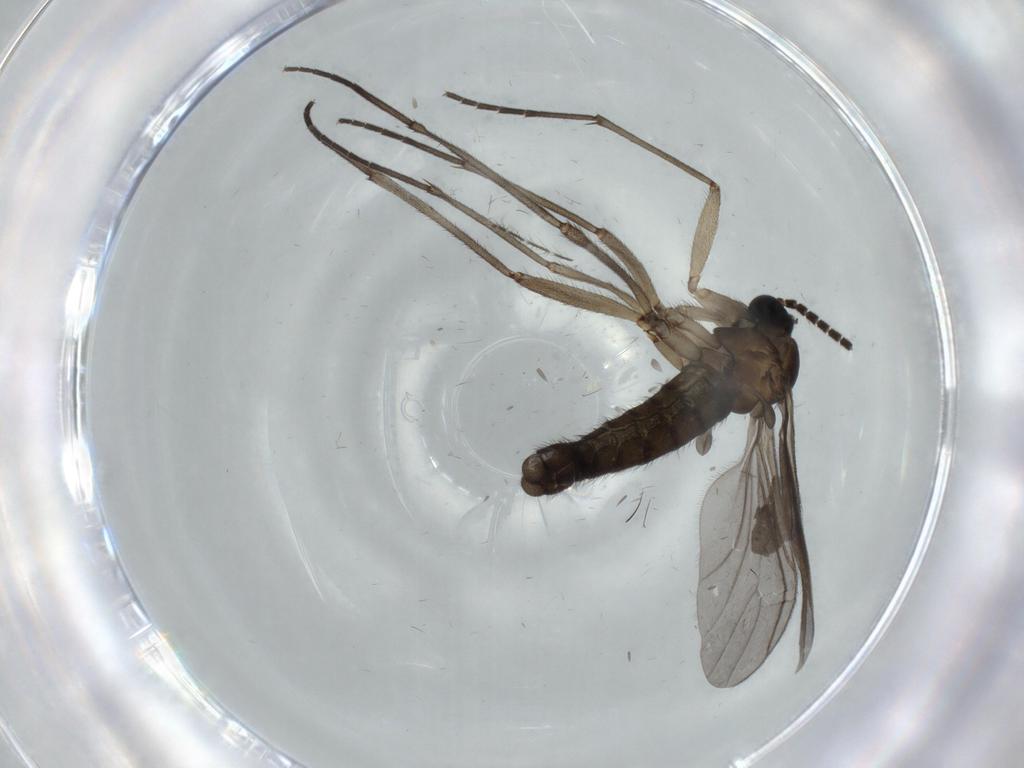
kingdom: Animalia
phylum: Arthropoda
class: Insecta
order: Diptera
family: Sciaridae
